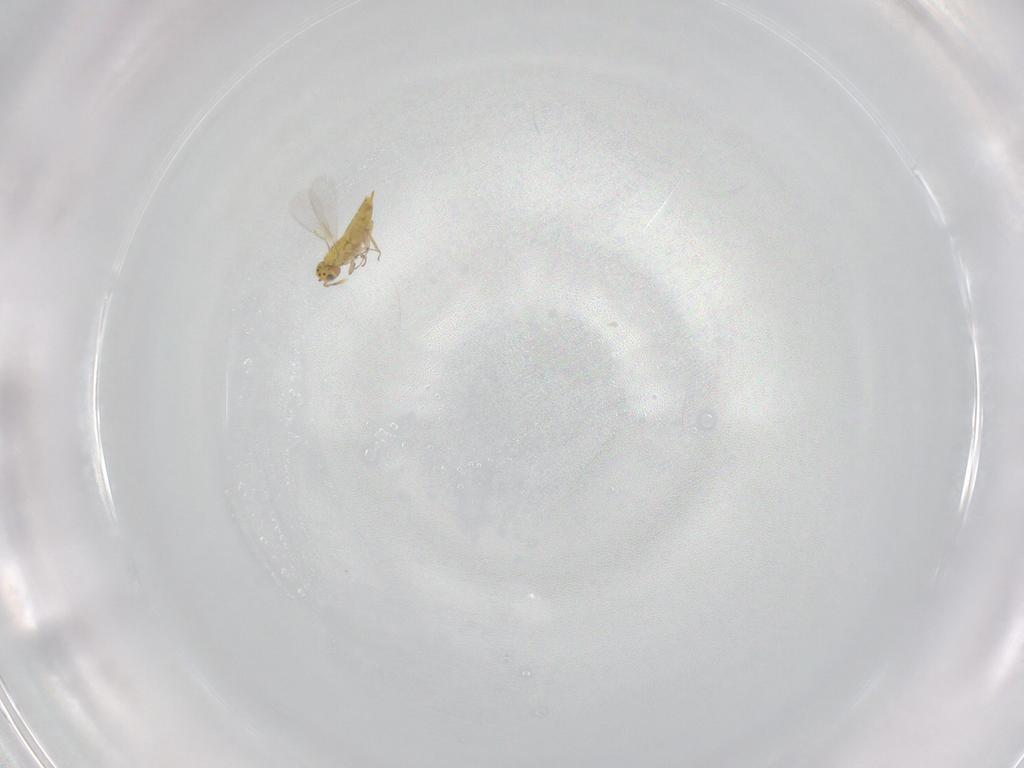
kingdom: Animalia
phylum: Arthropoda
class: Insecta
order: Hymenoptera
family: Aphelinidae
